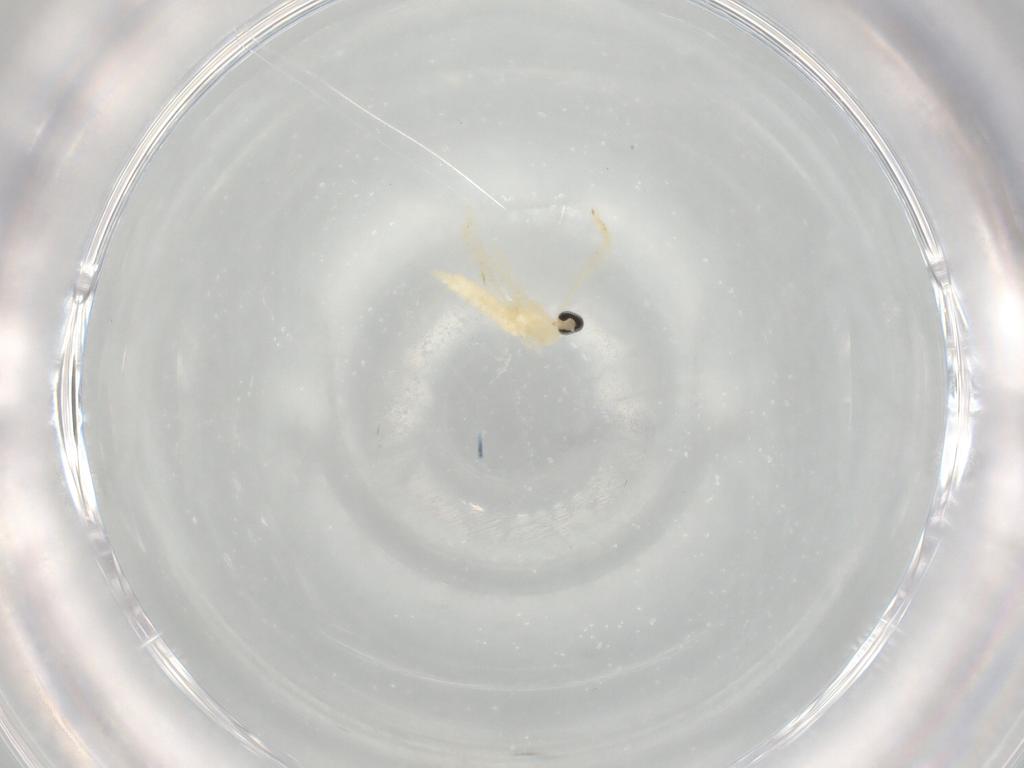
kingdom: Animalia
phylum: Arthropoda
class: Insecta
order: Diptera
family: Cecidomyiidae
